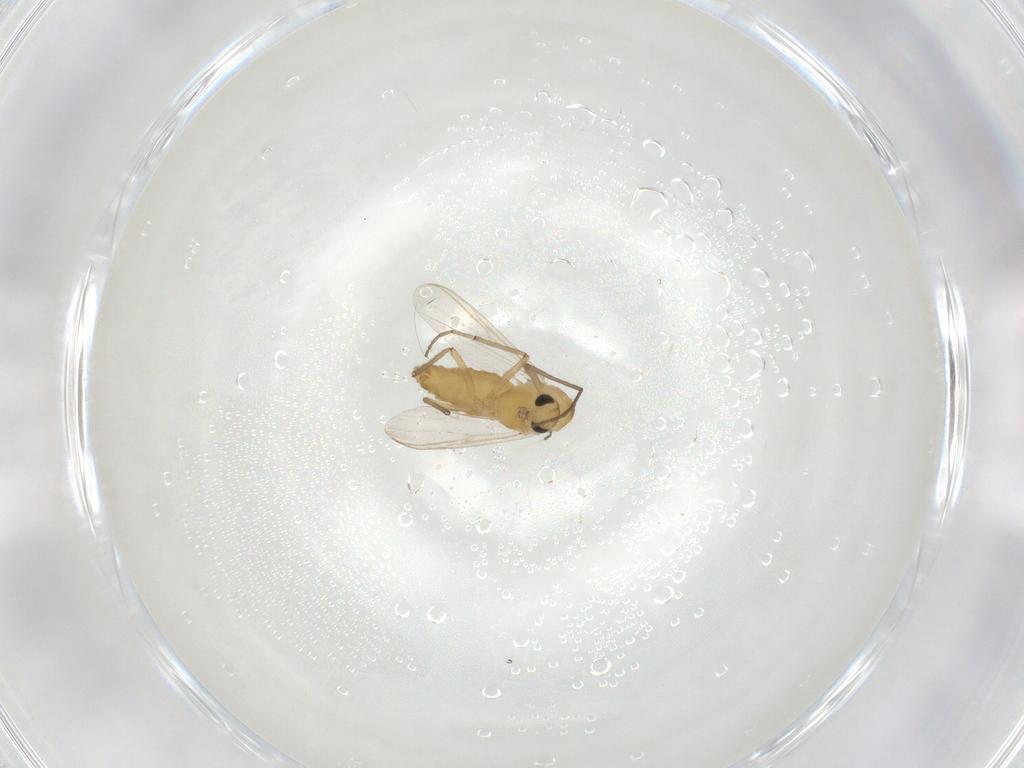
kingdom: Animalia
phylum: Arthropoda
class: Insecta
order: Diptera
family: Chironomidae
